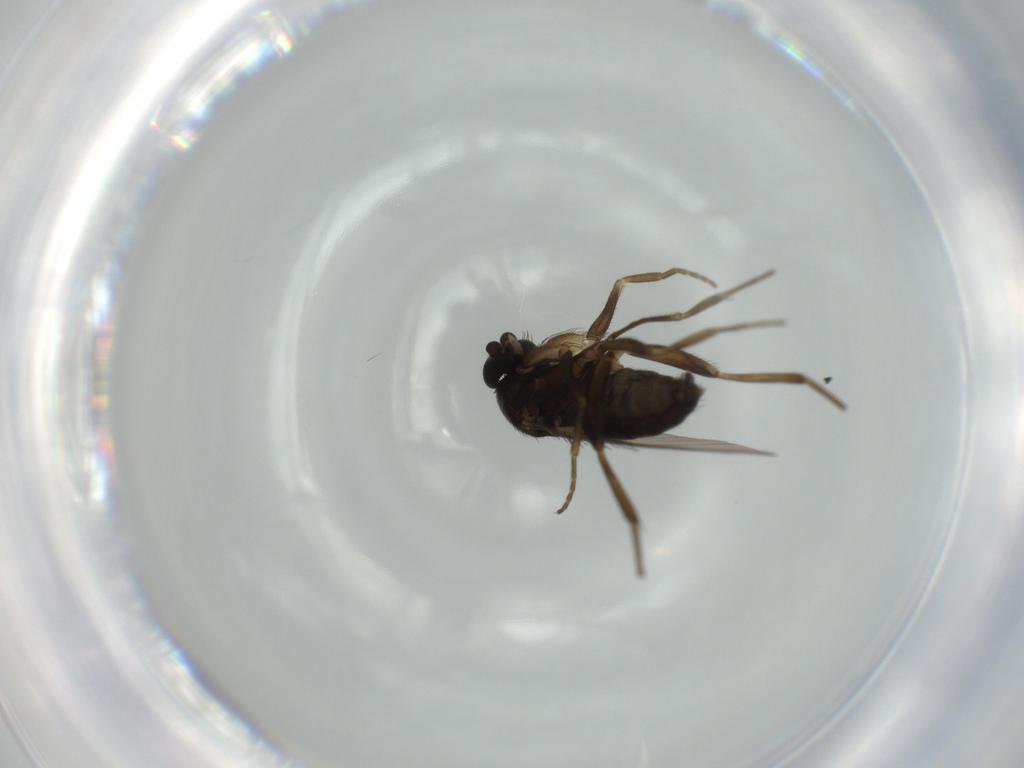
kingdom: Animalia
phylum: Arthropoda
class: Insecta
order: Diptera
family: Phoridae
